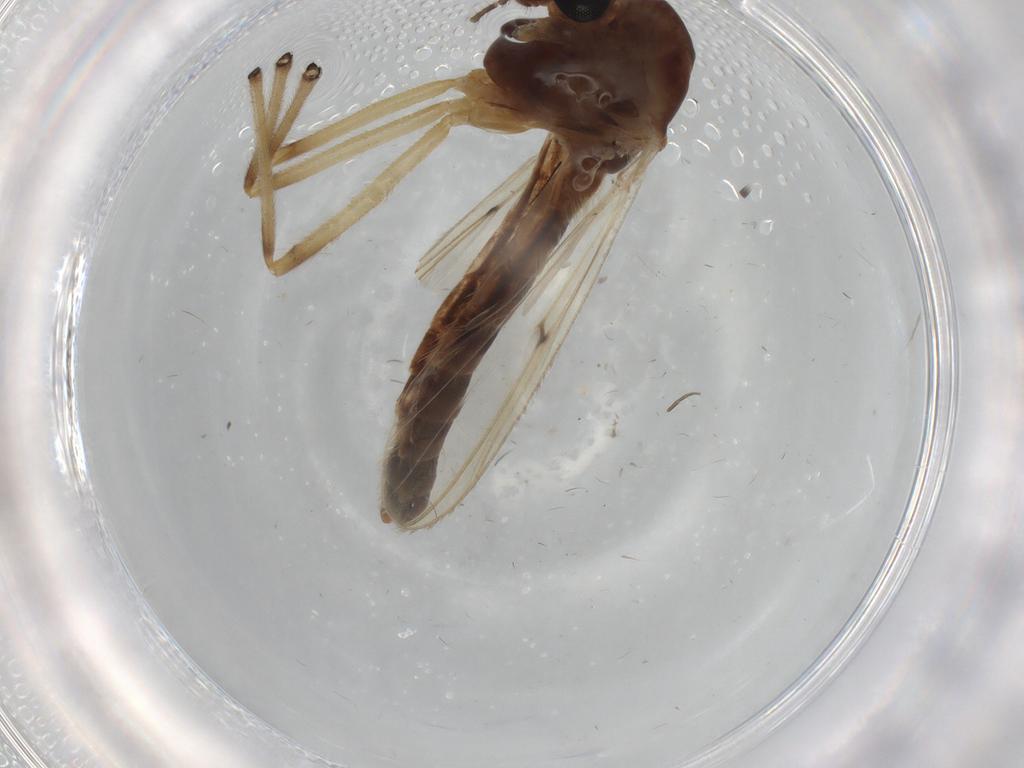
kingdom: Animalia
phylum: Arthropoda
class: Insecta
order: Diptera
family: Chironomidae
